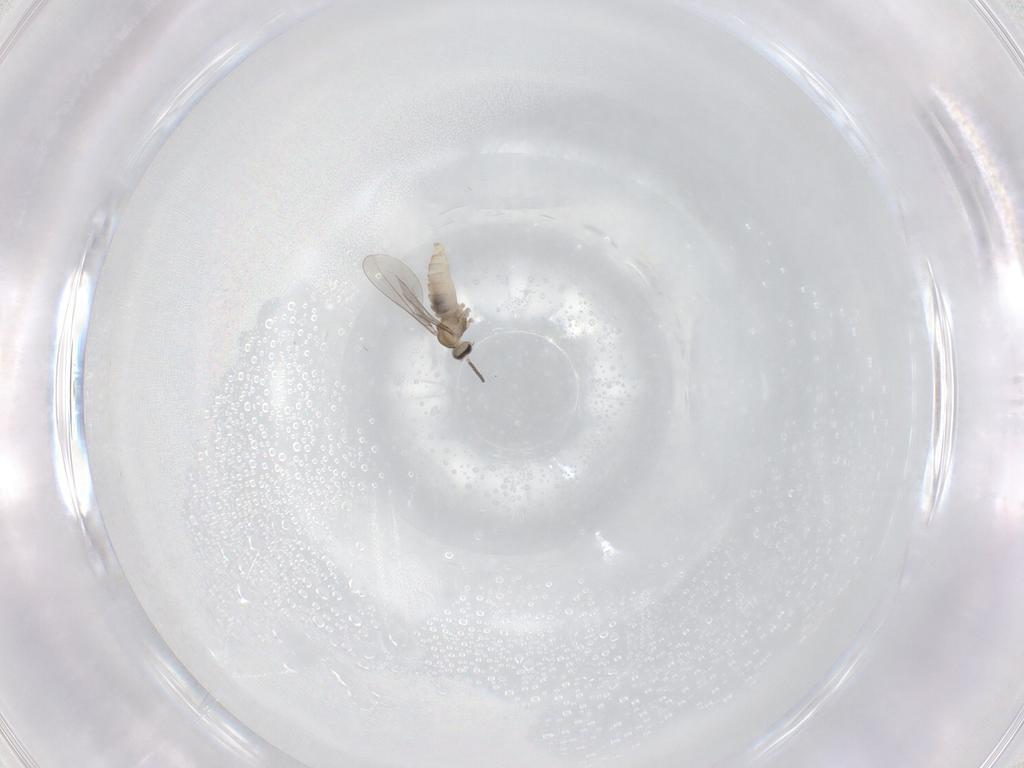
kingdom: Animalia
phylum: Arthropoda
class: Insecta
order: Diptera
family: Cecidomyiidae
